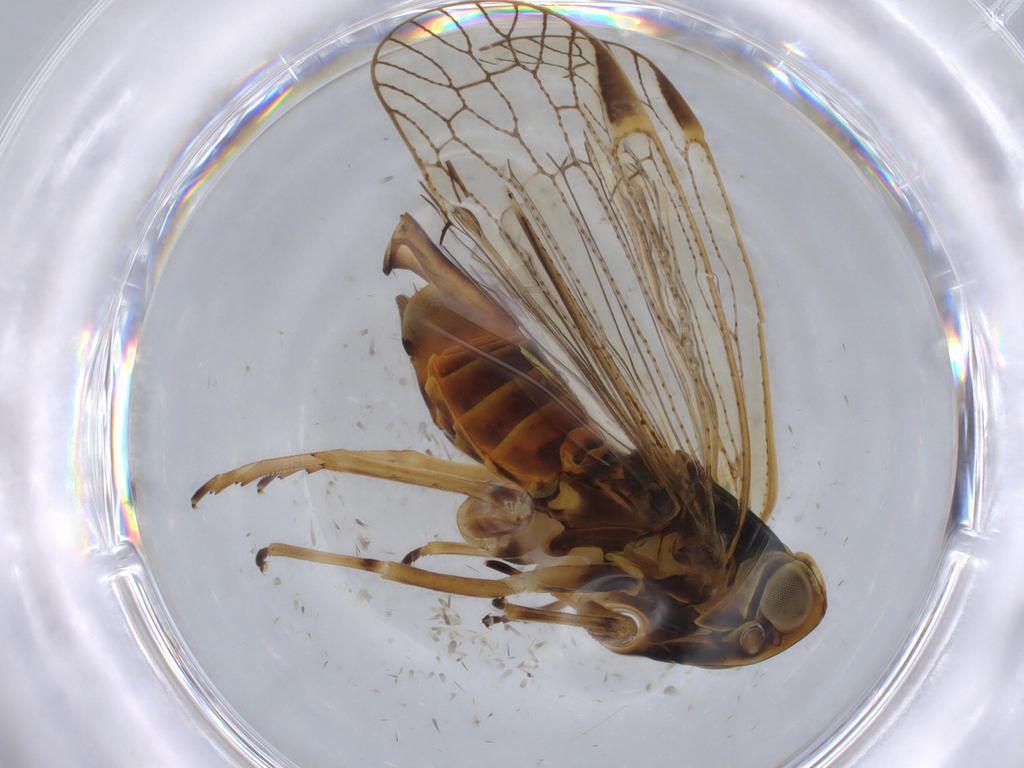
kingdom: Animalia
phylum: Arthropoda
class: Insecta
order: Hemiptera
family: Cixiidae
